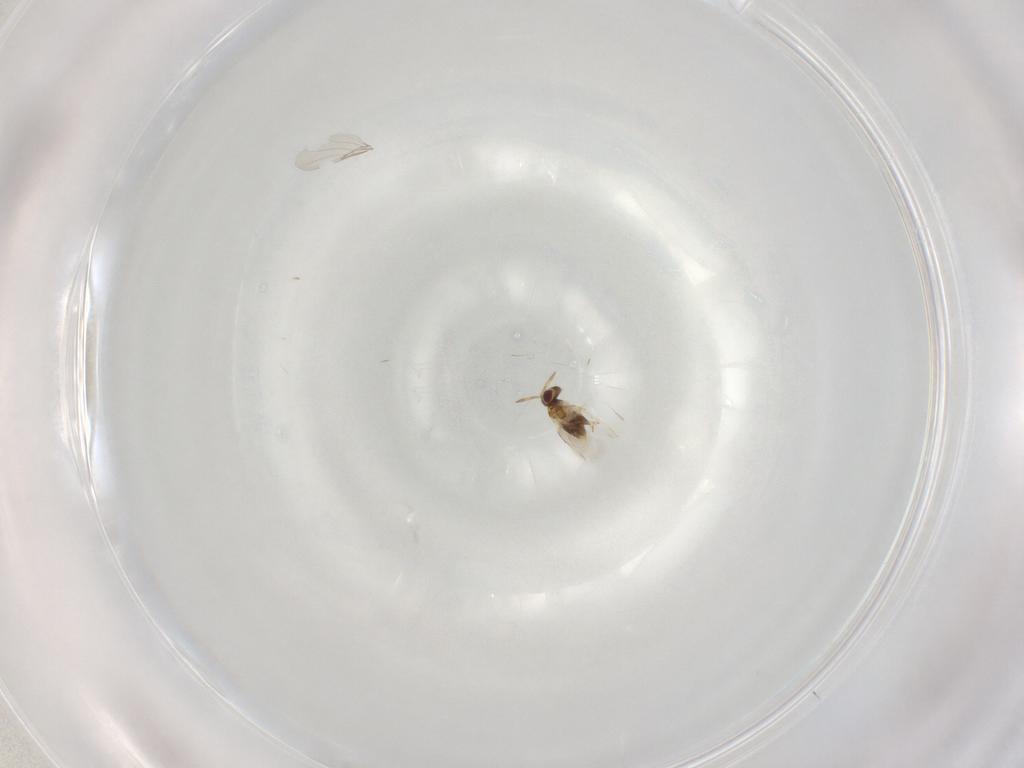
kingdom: Animalia
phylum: Arthropoda
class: Insecta
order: Hymenoptera
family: Aphelinidae
